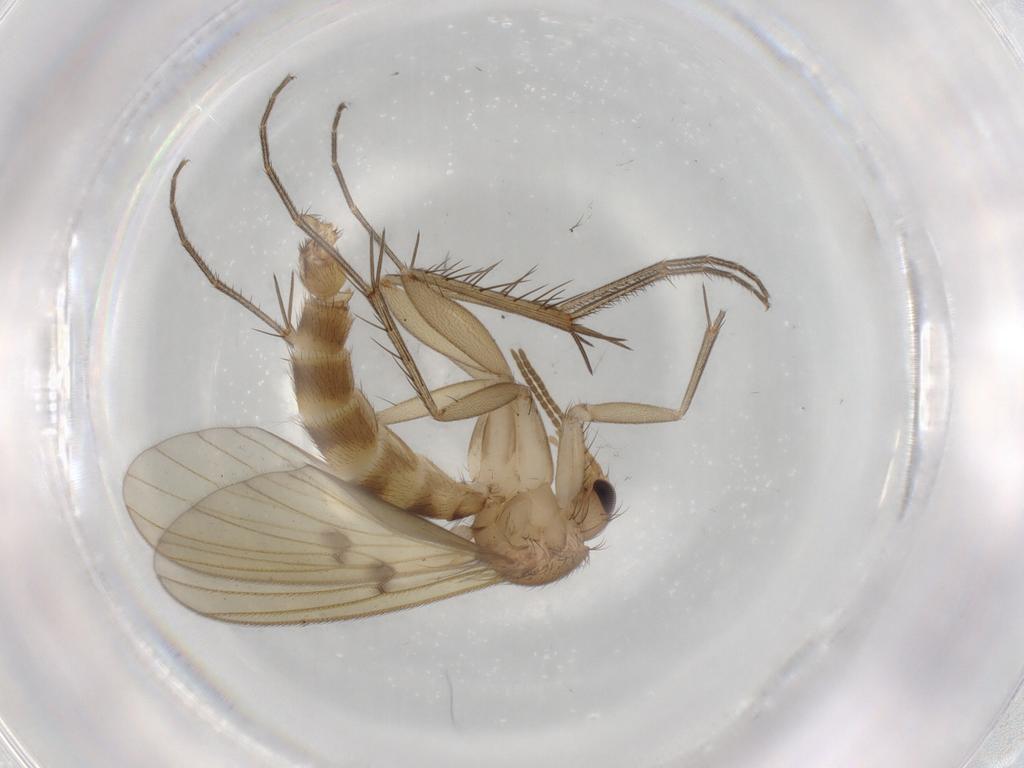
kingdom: Animalia
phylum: Arthropoda
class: Insecta
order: Diptera
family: Mycetophilidae
